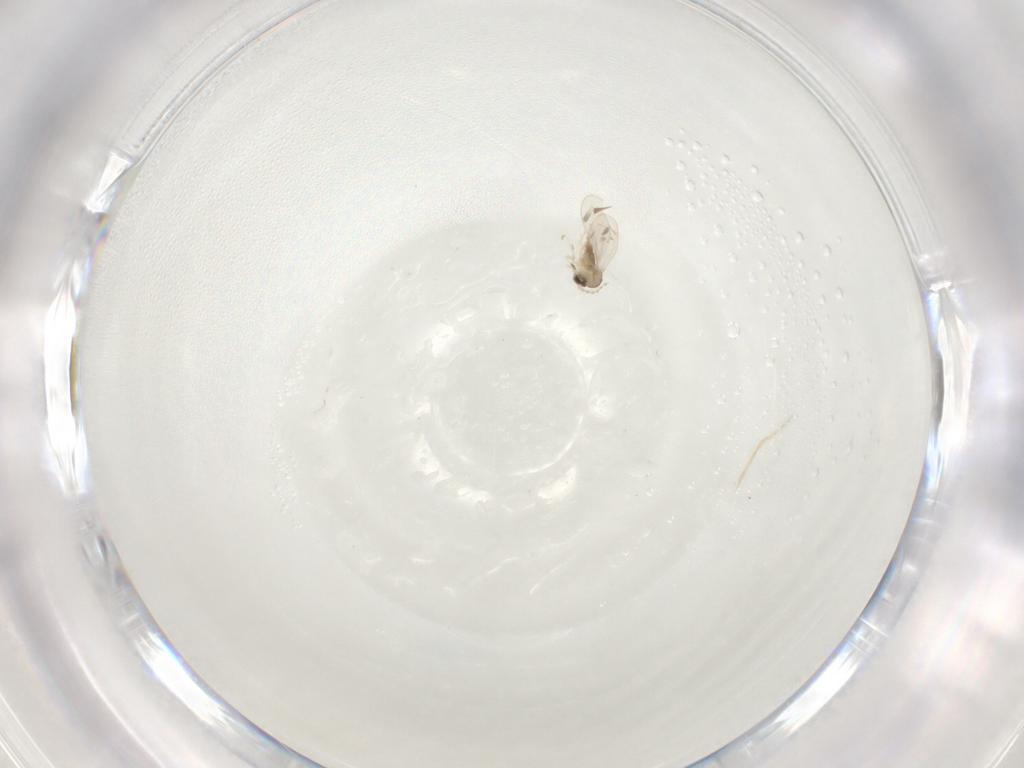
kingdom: Animalia
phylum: Arthropoda
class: Insecta
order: Diptera
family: Cecidomyiidae
